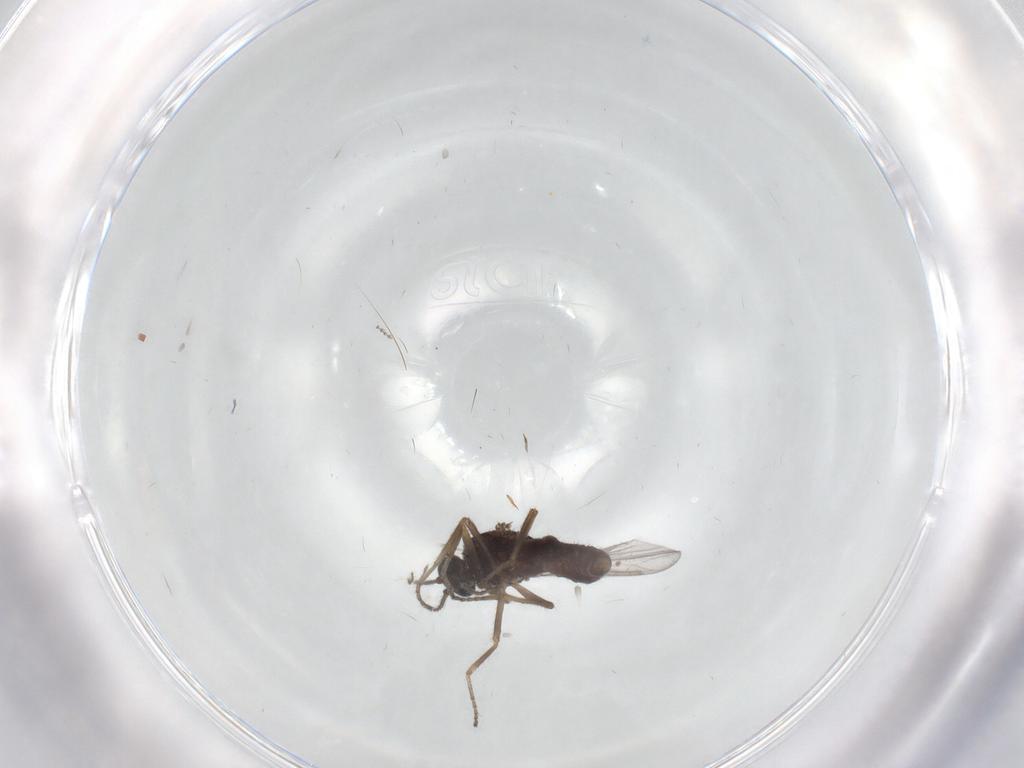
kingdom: Animalia
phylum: Arthropoda
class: Insecta
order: Diptera
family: Ceratopogonidae
